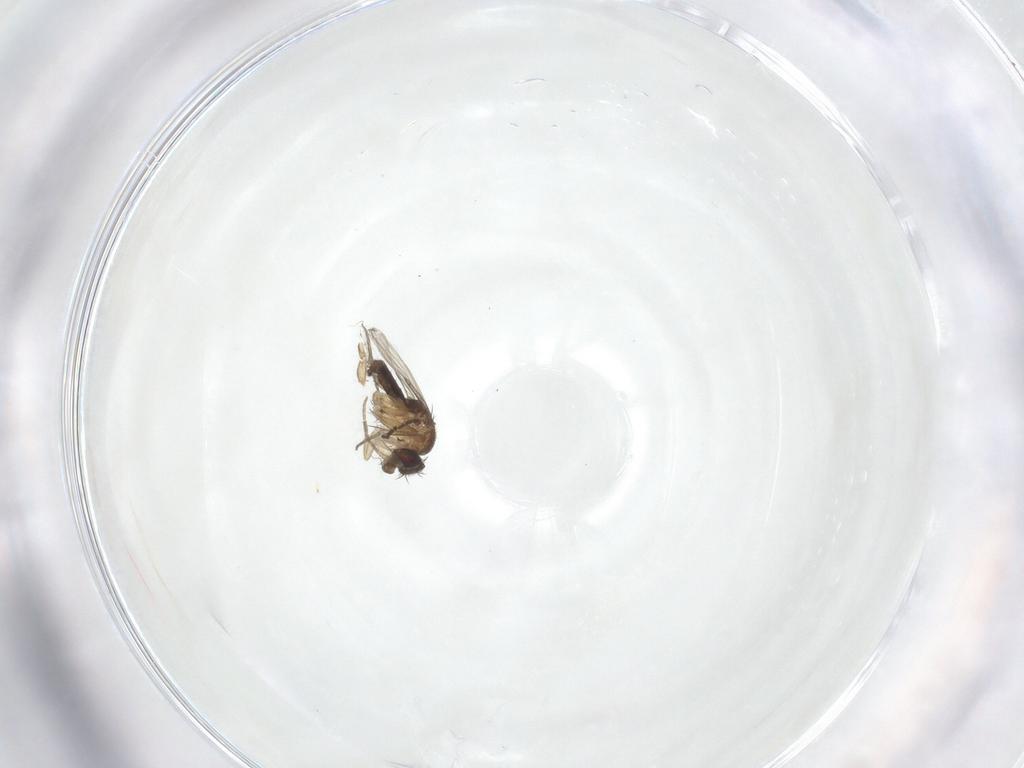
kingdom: Animalia
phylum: Arthropoda
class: Insecta
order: Diptera
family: Phoridae
